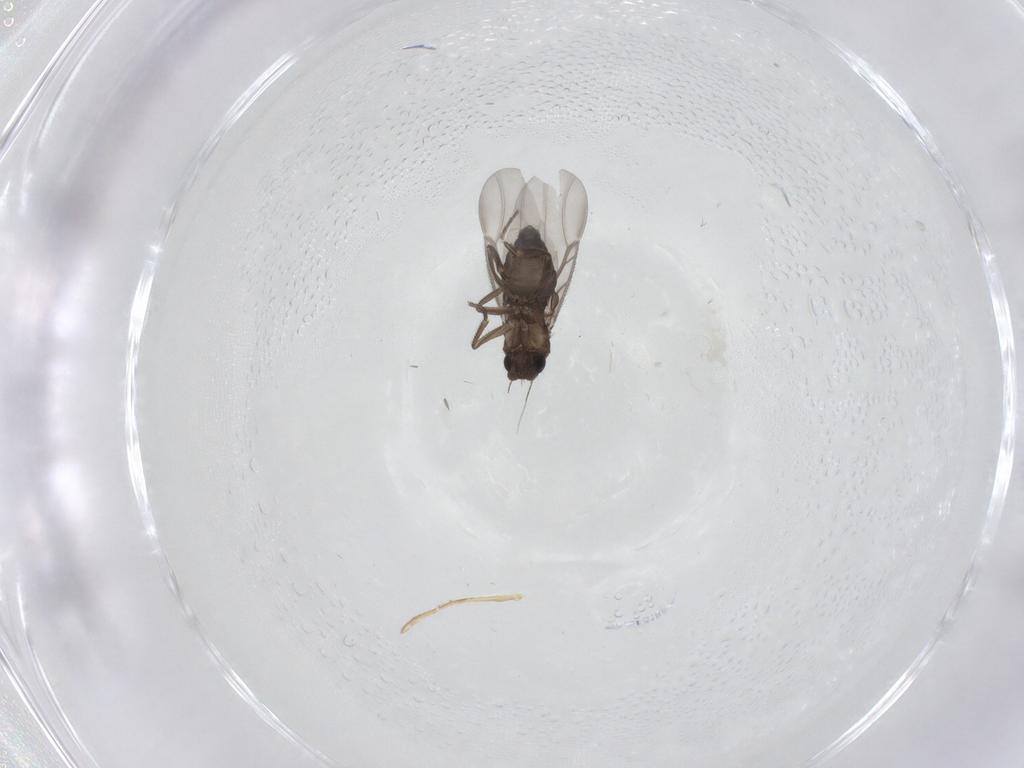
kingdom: Animalia
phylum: Arthropoda
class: Insecta
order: Diptera
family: Phoridae
